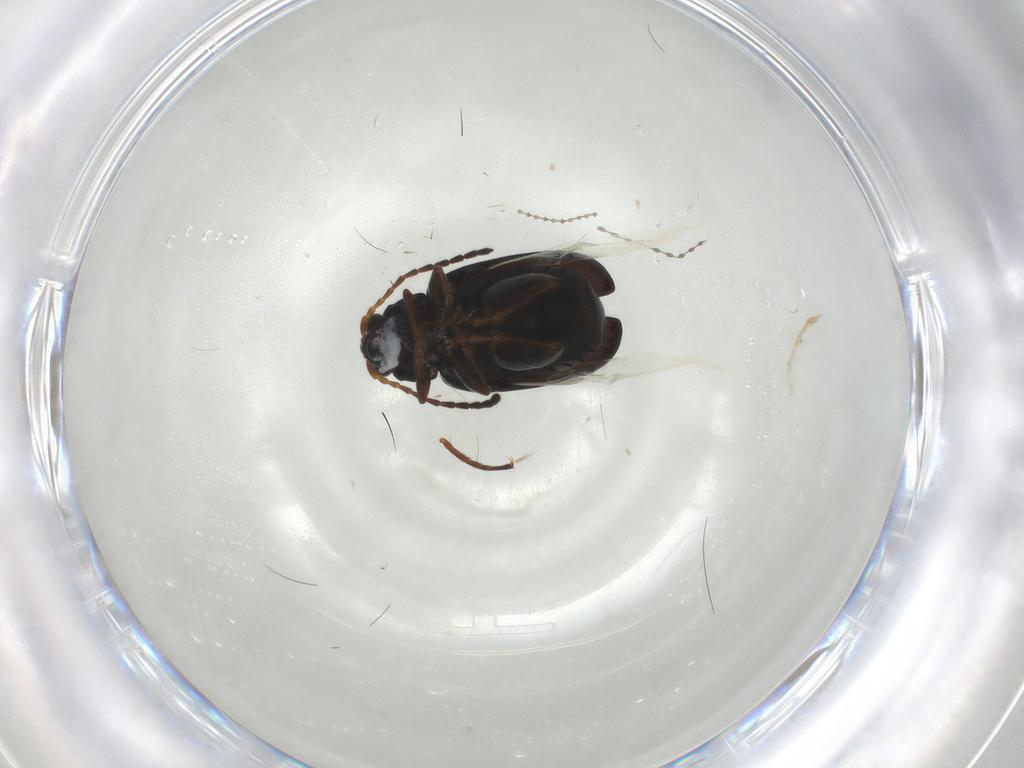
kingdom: Animalia
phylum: Arthropoda
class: Insecta
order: Coleoptera
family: Chrysomelidae
